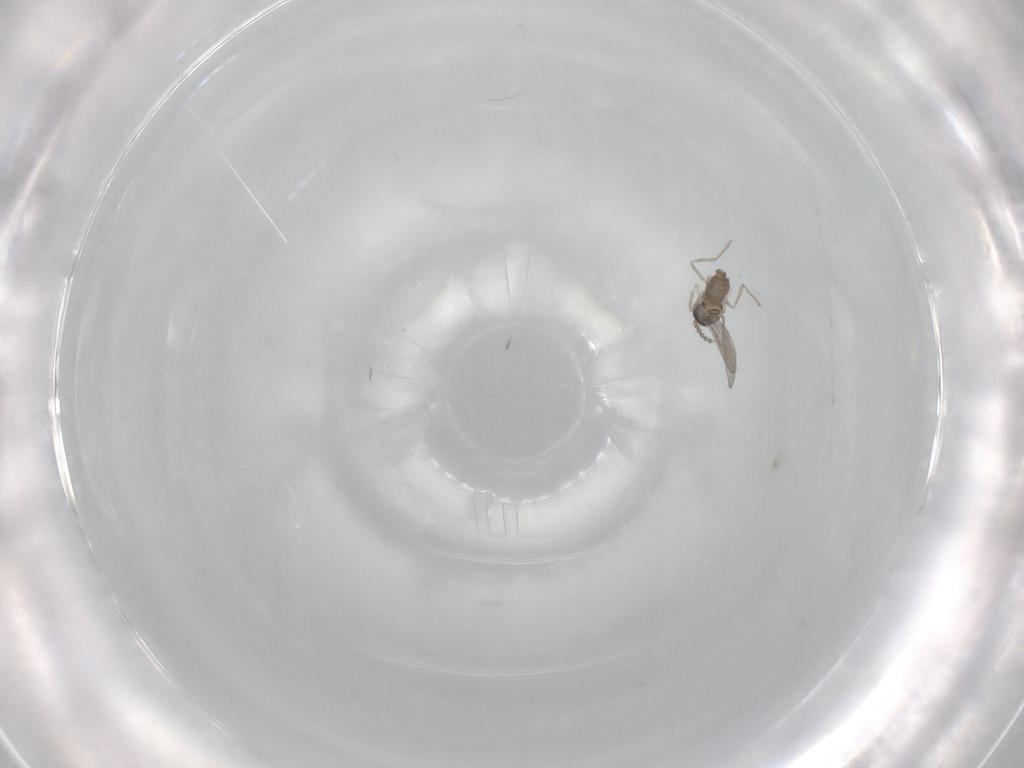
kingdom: Animalia
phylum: Arthropoda
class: Insecta
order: Diptera
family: Cecidomyiidae
